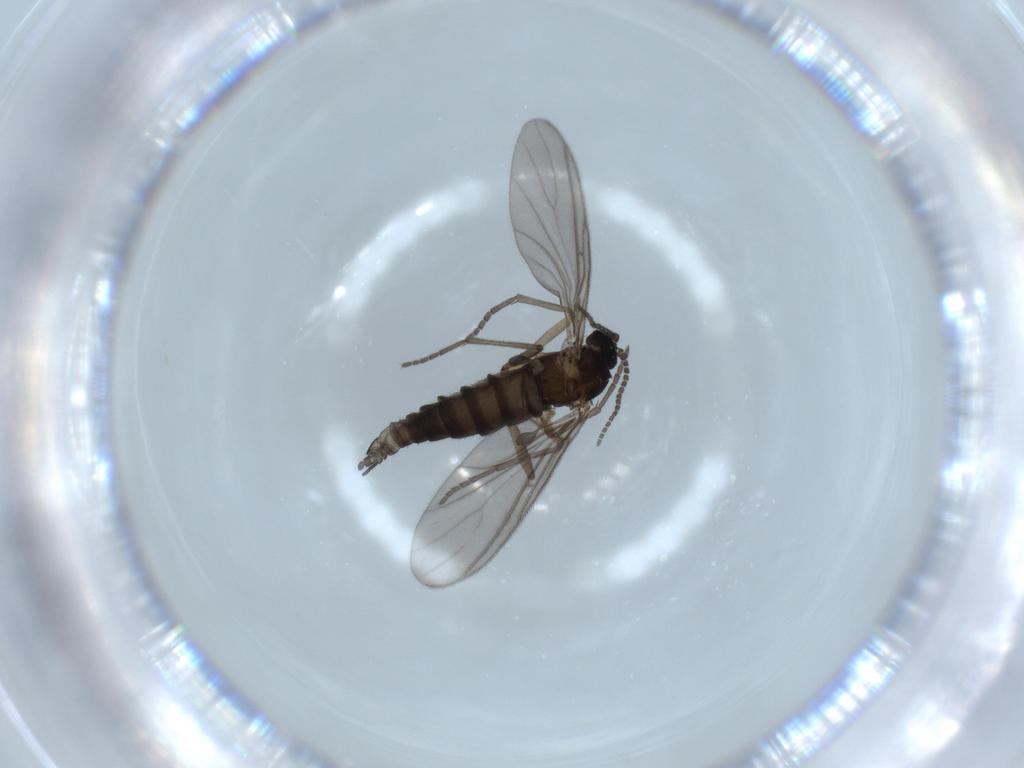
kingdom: Animalia
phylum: Arthropoda
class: Insecta
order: Diptera
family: Sciaridae
